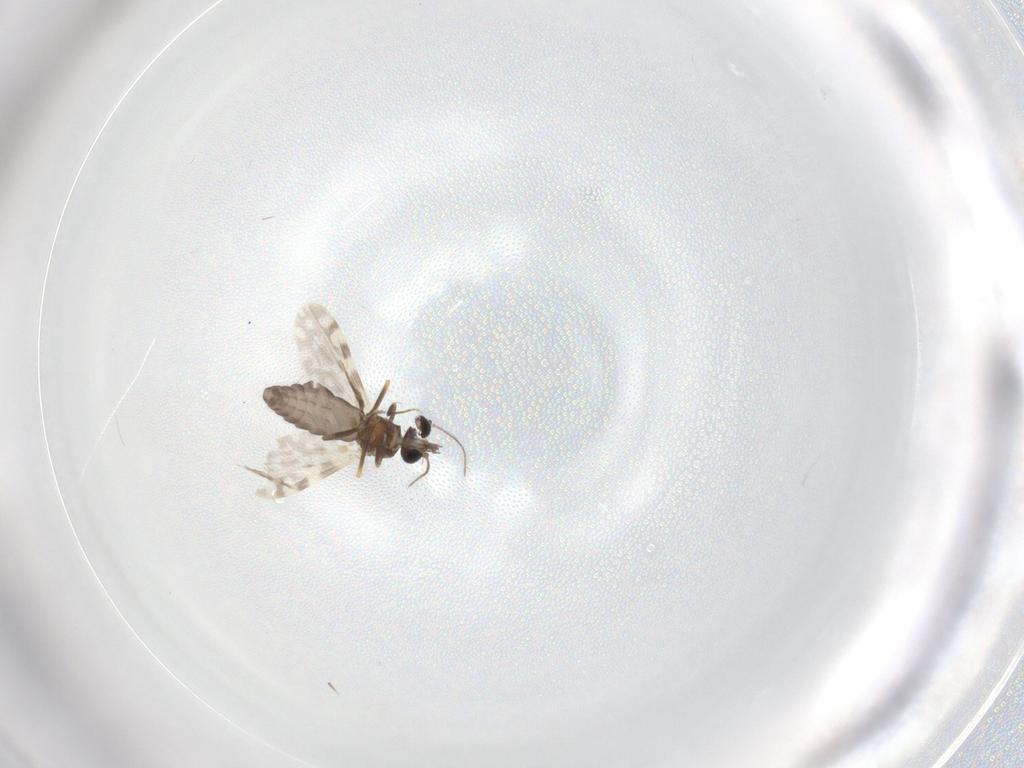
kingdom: Animalia
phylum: Arthropoda
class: Insecta
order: Diptera
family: Ceratopogonidae
